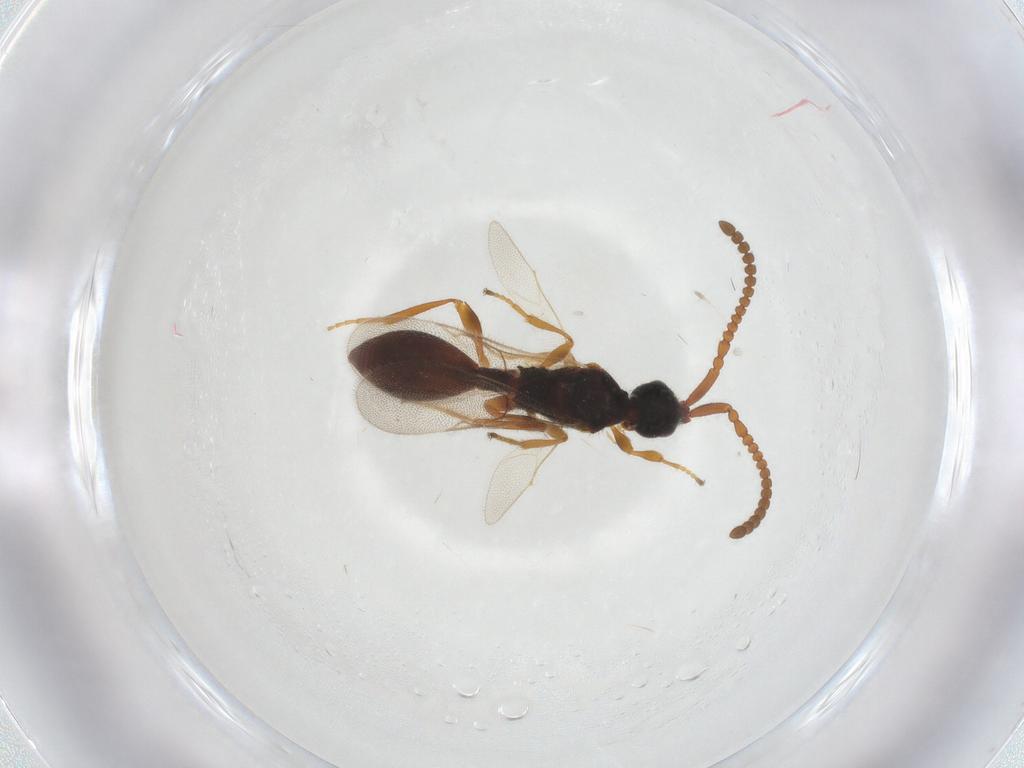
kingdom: Animalia
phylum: Arthropoda
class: Insecta
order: Hymenoptera
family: Diapriidae
